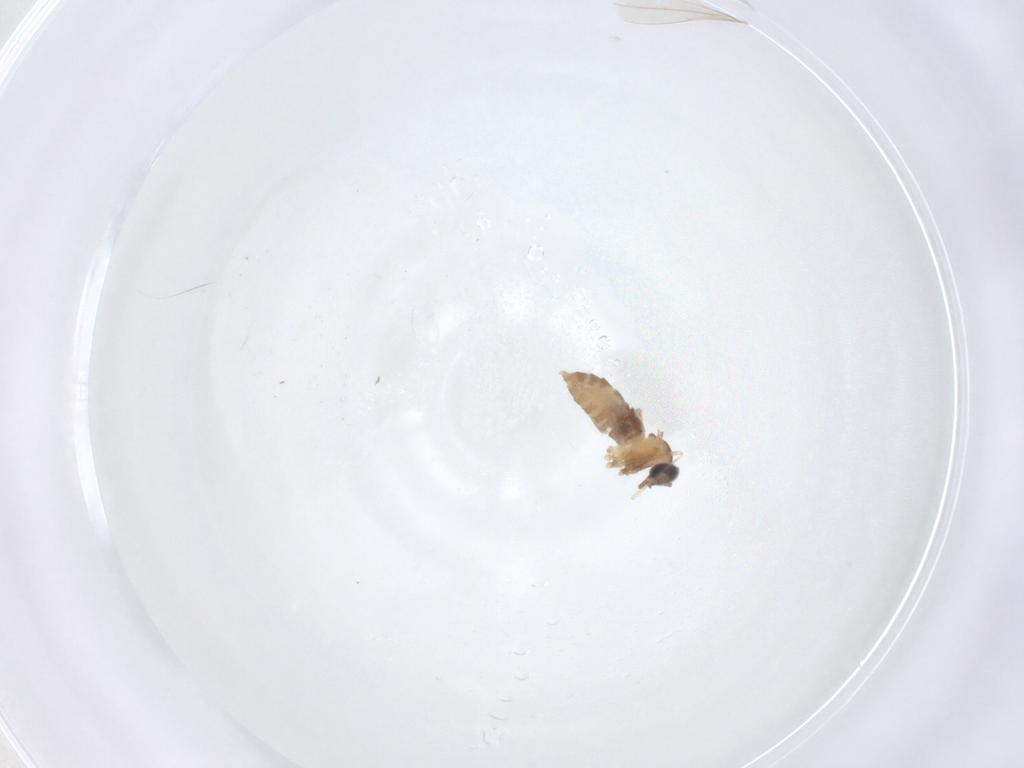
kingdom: Animalia
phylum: Arthropoda
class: Insecta
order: Diptera
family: Cecidomyiidae
